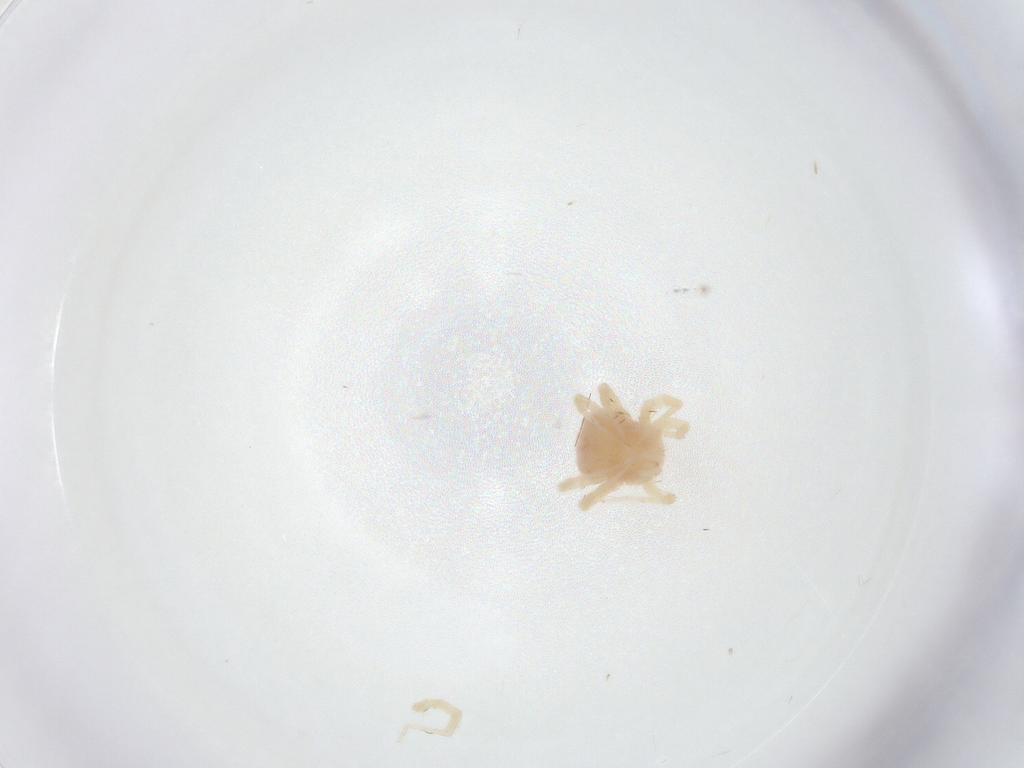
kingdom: Animalia
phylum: Arthropoda
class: Arachnida
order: Trombidiformes
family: Anystidae
